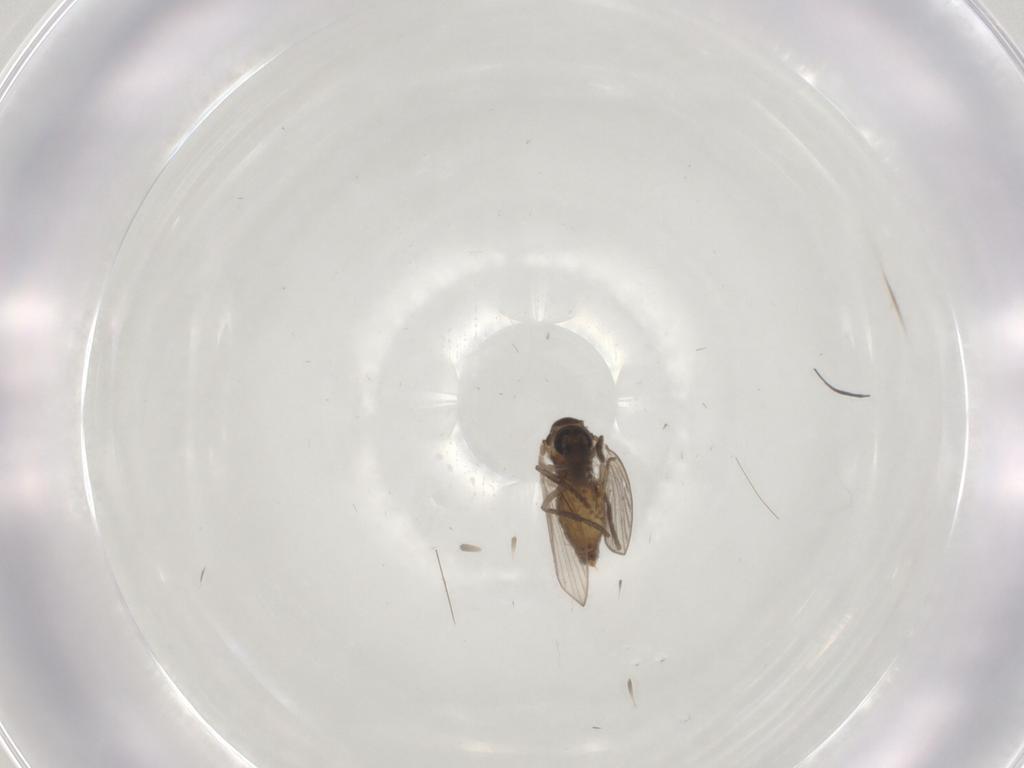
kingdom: Animalia
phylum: Arthropoda
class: Insecta
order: Diptera
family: Psychodidae
